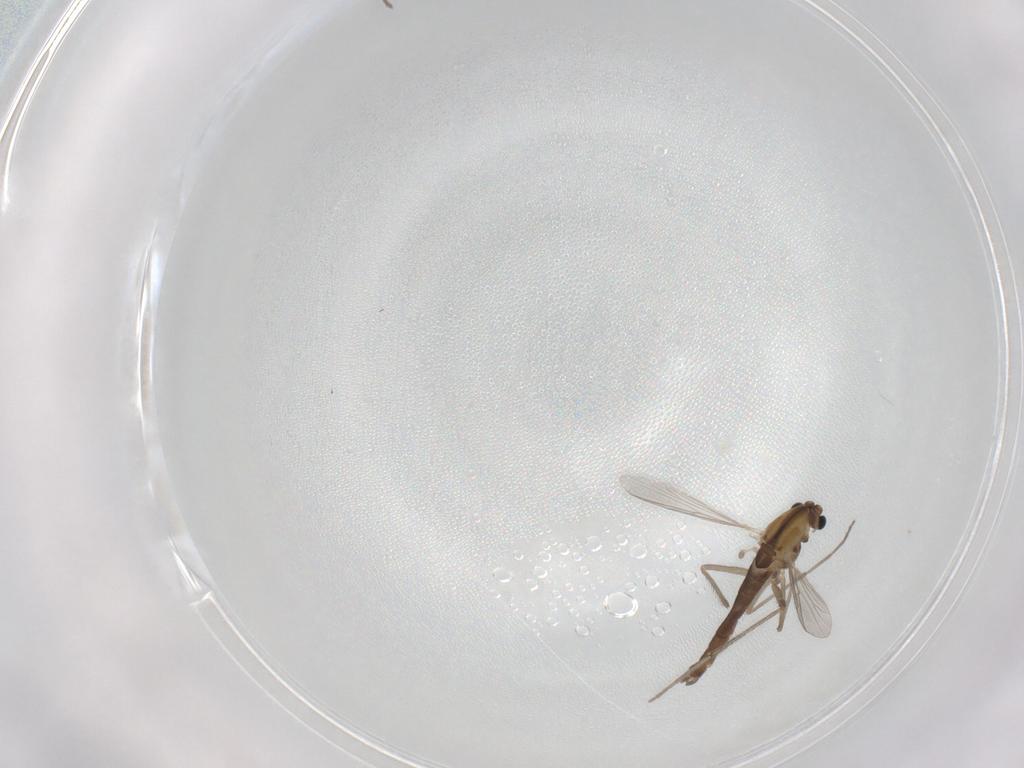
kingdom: Animalia
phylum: Arthropoda
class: Insecta
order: Diptera
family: Chironomidae
